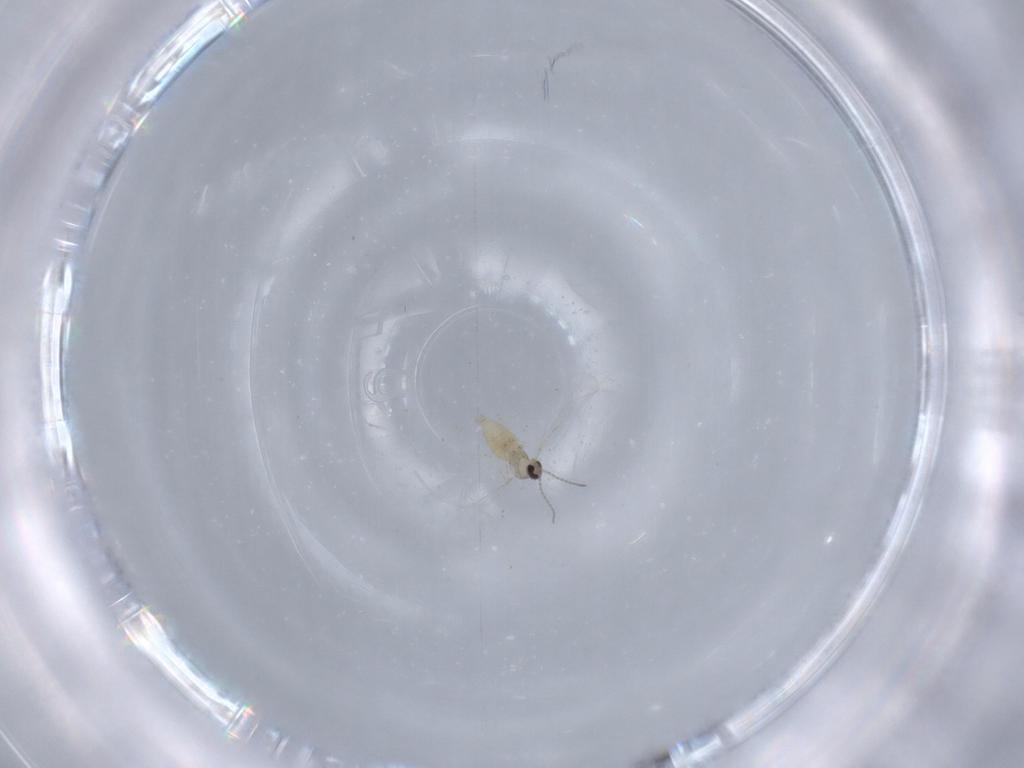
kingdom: Animalia
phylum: Arthropoda
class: Insecta
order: Diptera
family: Cecidomyiidae
